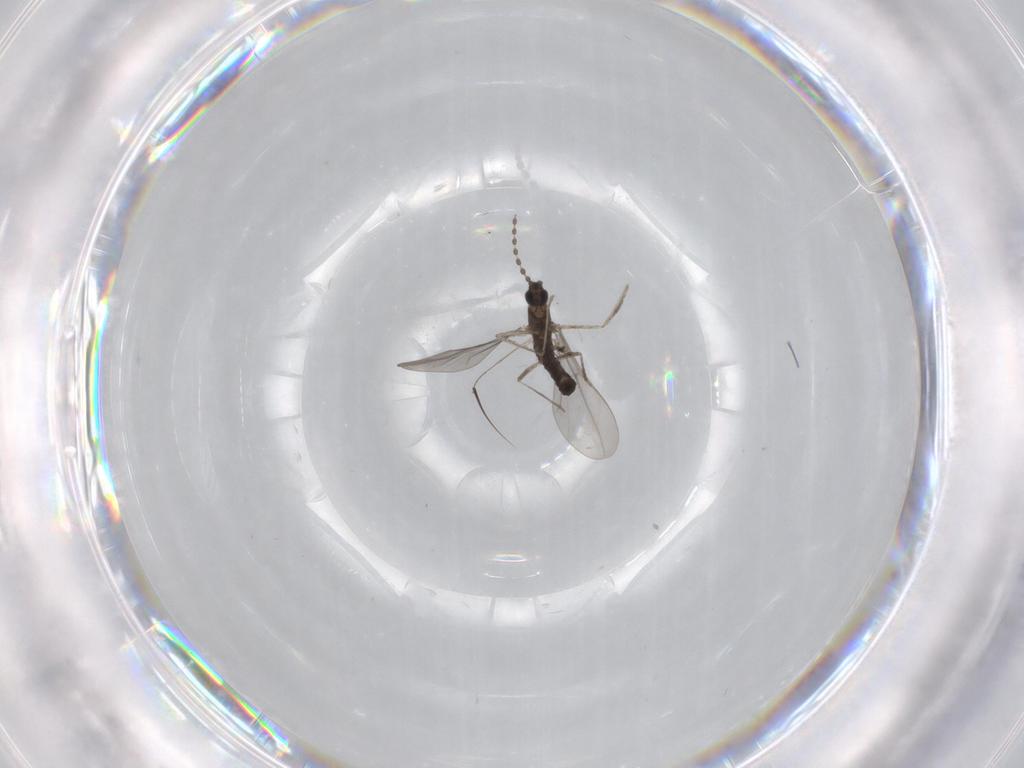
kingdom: Animalia
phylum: Arthropoda
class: Insecta
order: Diptera
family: Cecidomyiidae
